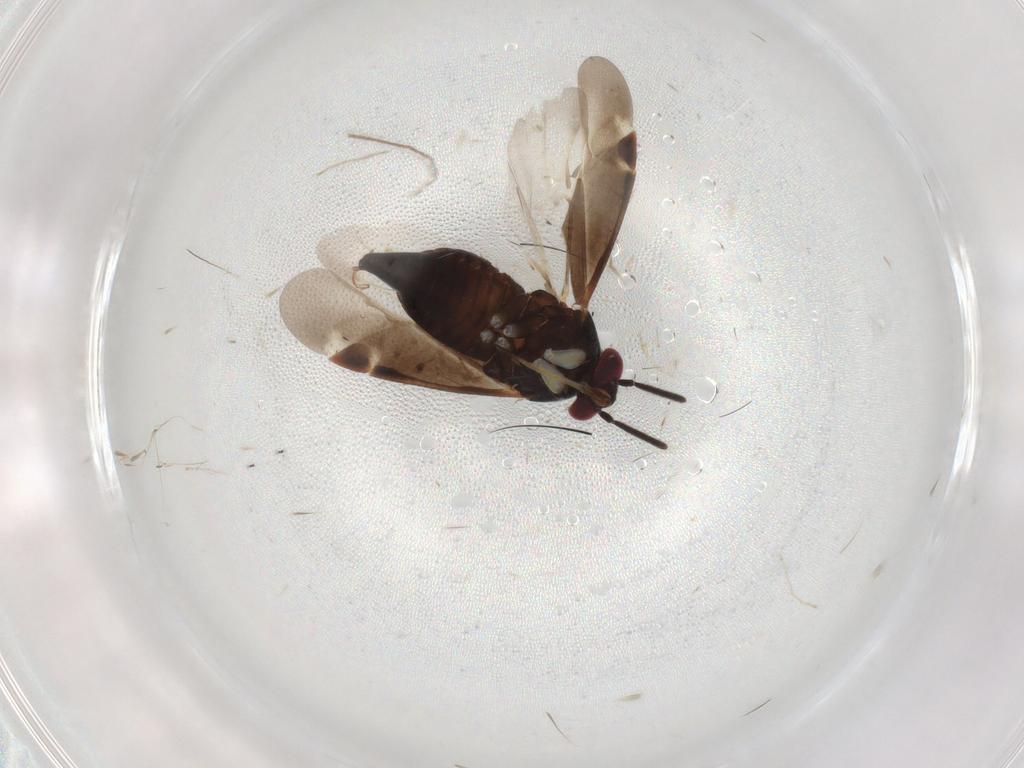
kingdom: Animalia
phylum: Arthropoda
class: Insecta
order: Hemiptera
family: Miridae
